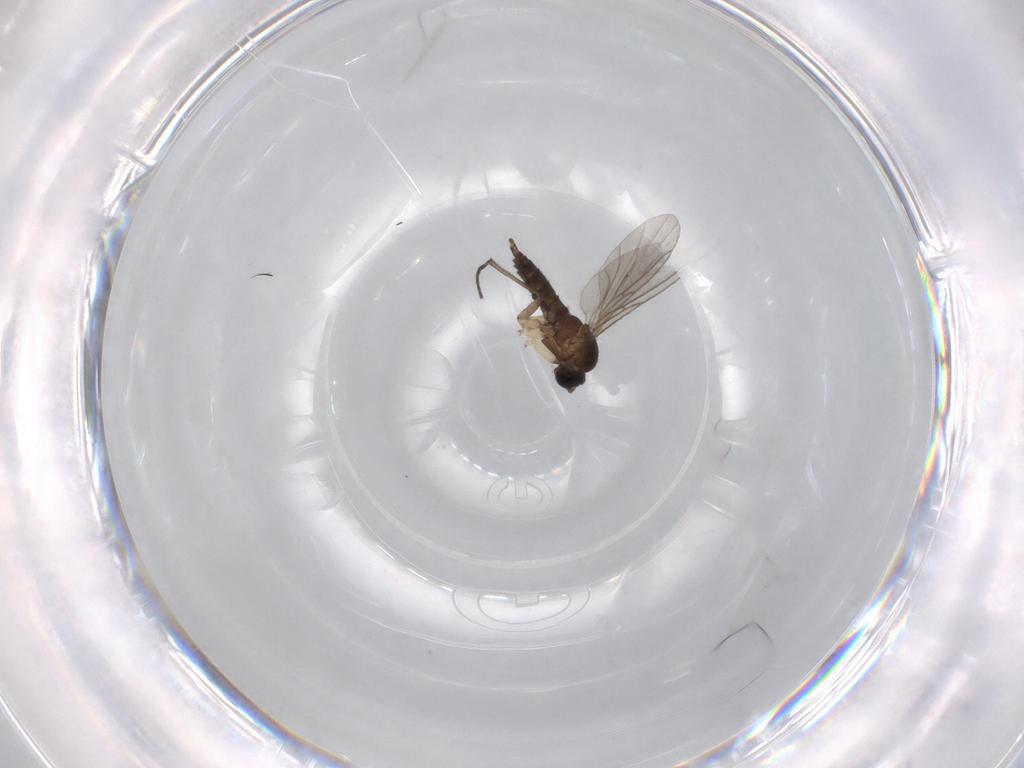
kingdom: Animalia
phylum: Arthropoda
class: Insecta
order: Diptera
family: Sciaridae
